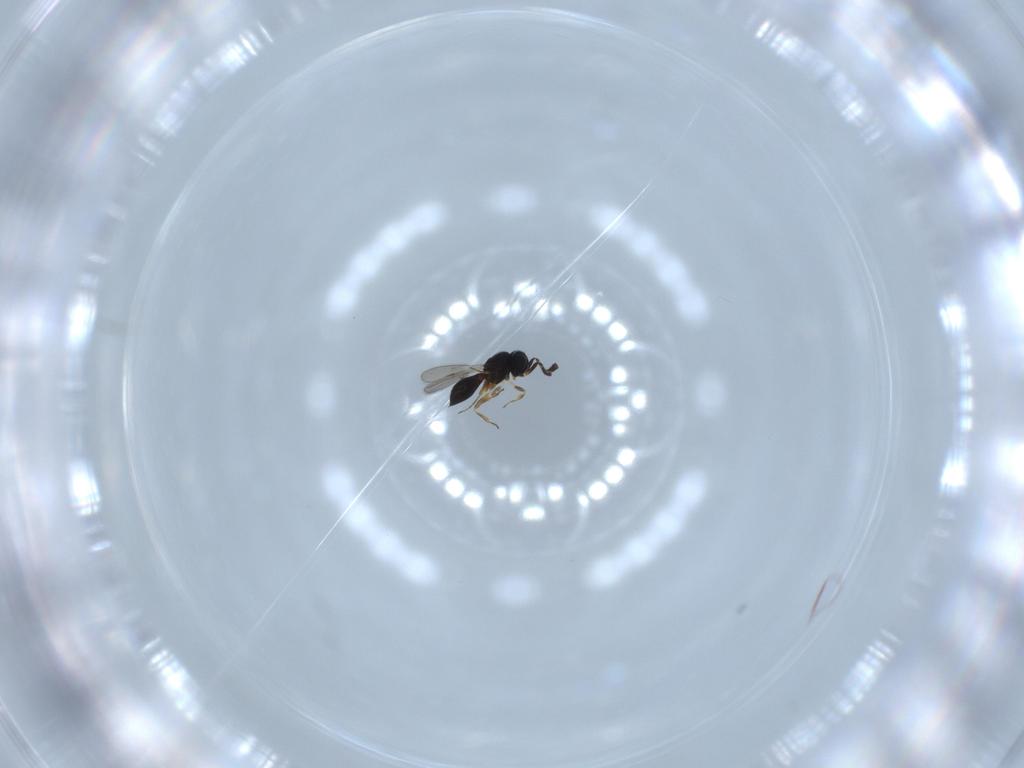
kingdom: Animalia
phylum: Arthropoda
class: Insecta
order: Hymenoptera
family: Scelionidae
